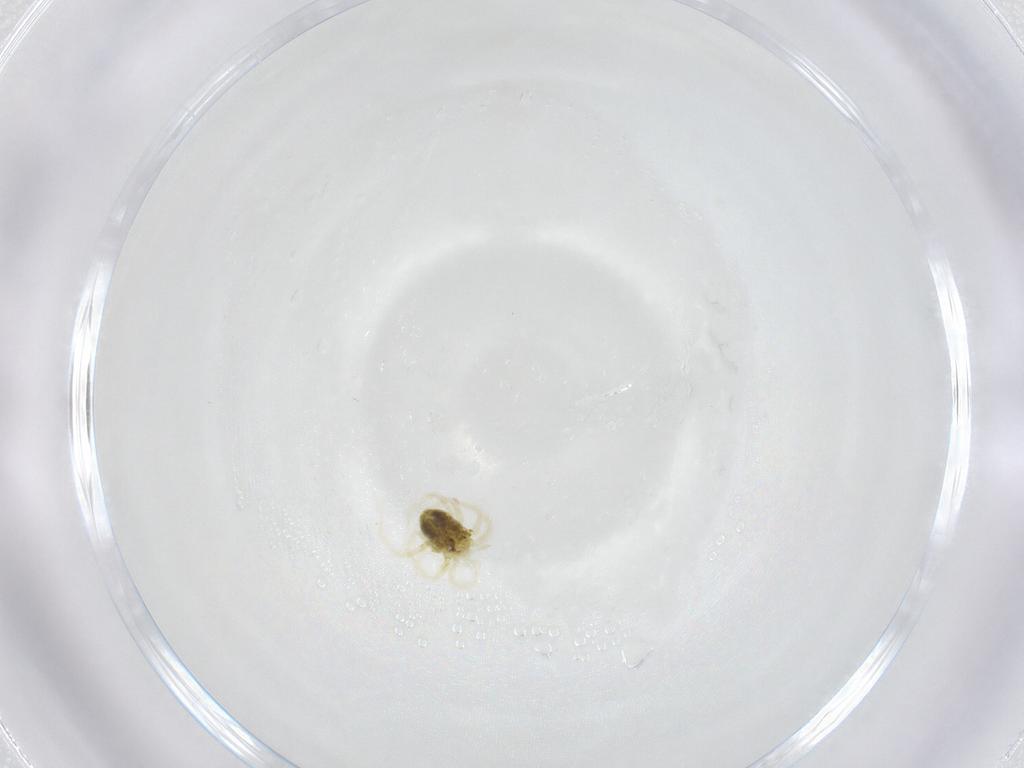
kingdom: Animalia
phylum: Arthropoda
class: Arachnida
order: Trombidiformes
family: Anystidae
